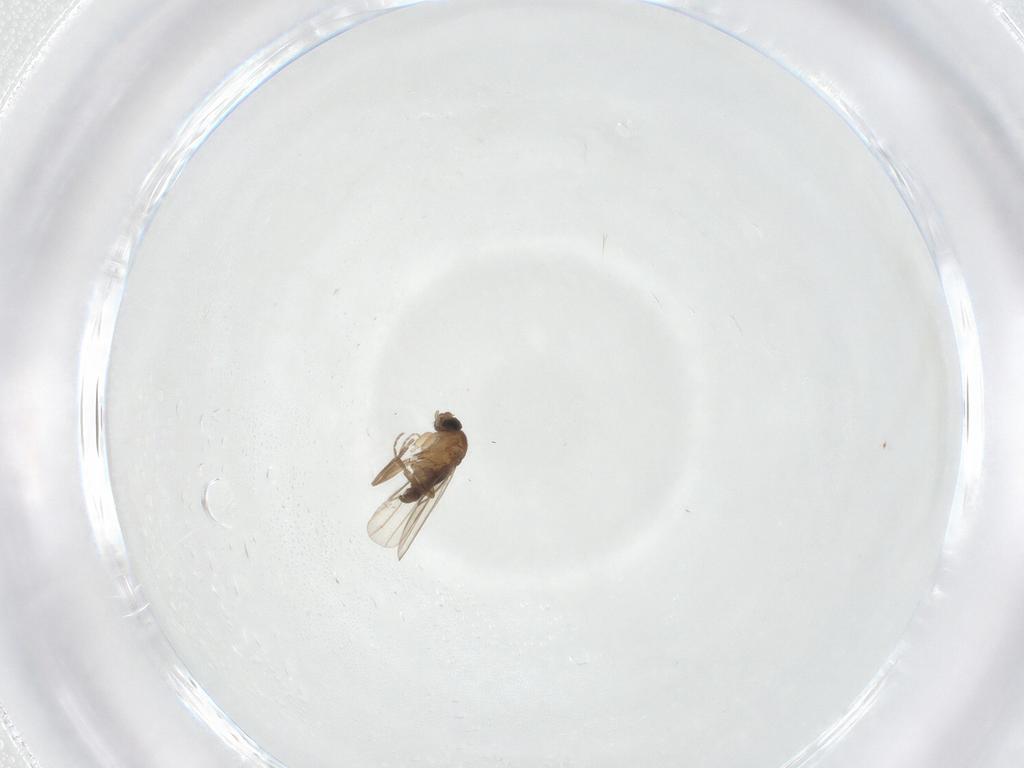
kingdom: Animalia
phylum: Arthropoda
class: Insecta
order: Diptera
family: Phoridae
